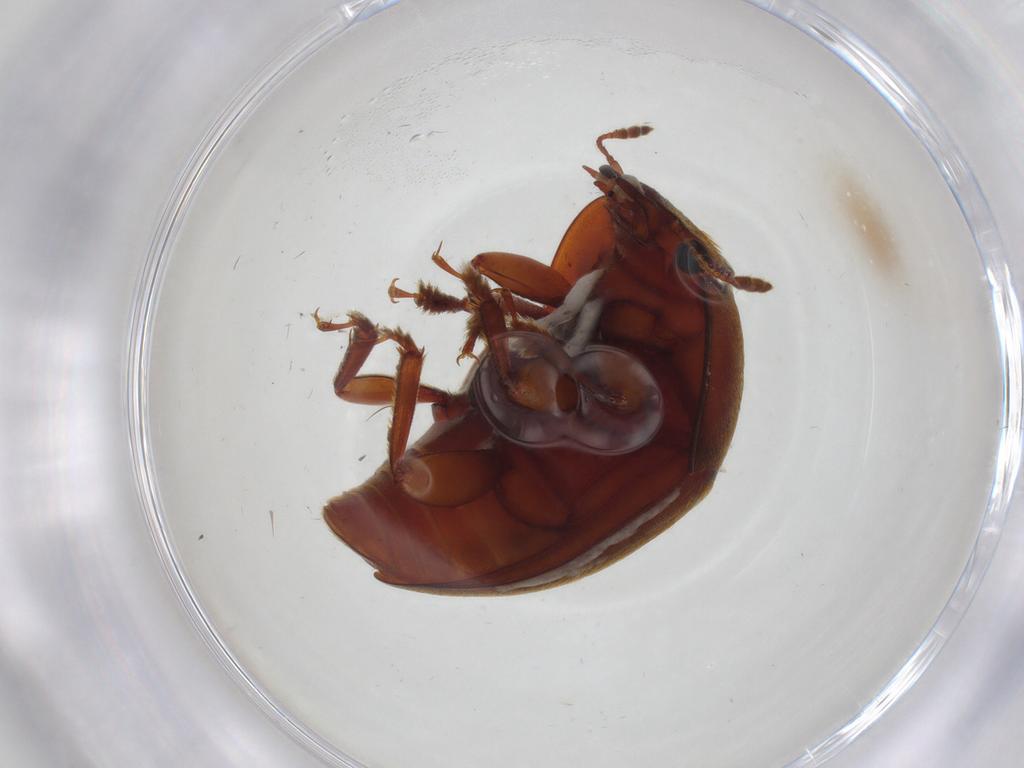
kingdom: Animalia
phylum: Arthropoda
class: Insecta
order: Coleoptera
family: Nitidulidae
